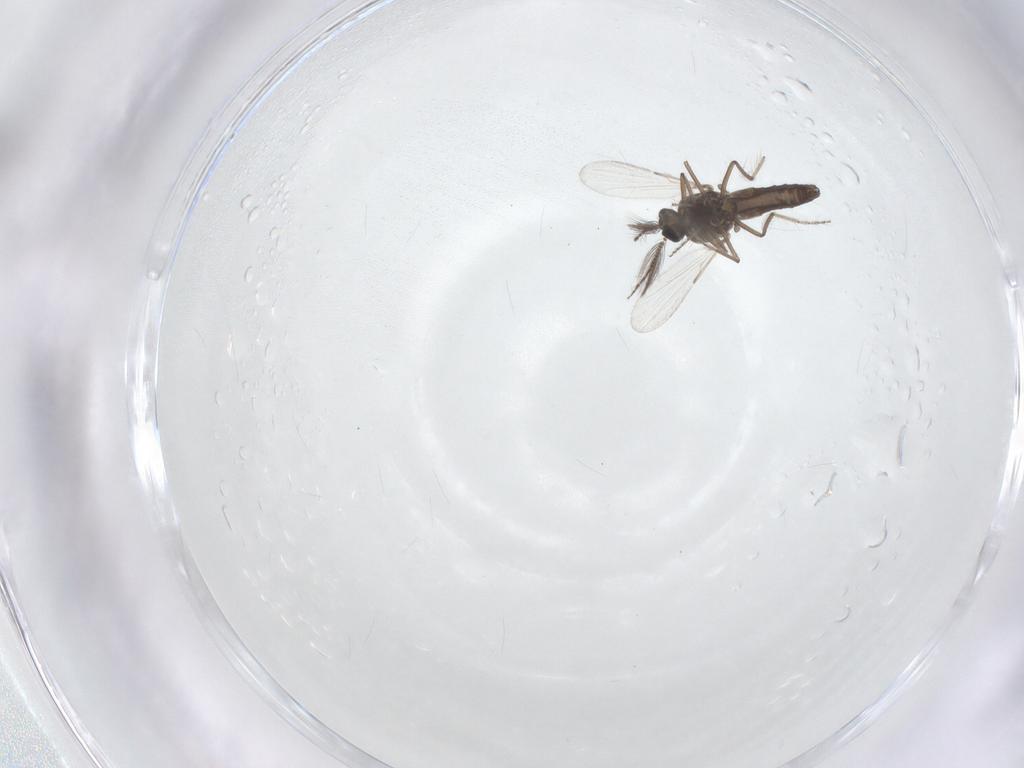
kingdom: Animalia
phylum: Arthropoda
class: Insecta
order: Diptera
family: Ceratopogonidae
